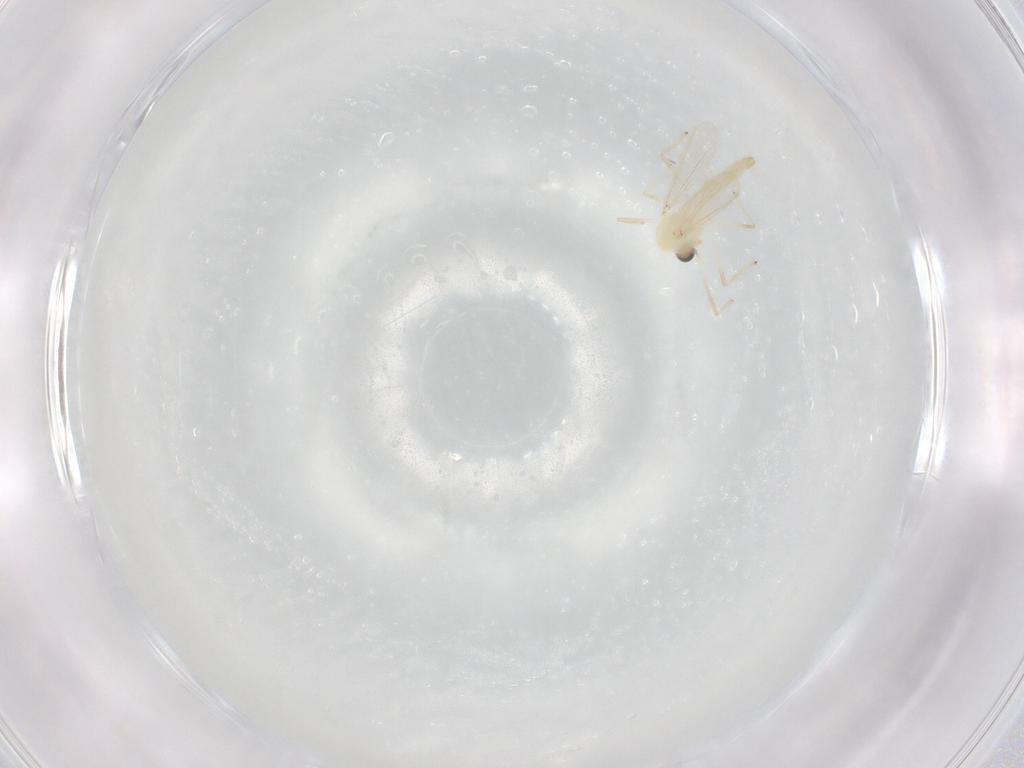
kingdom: Animalia
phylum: Arthropoda
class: Insecta
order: Diptera
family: Chironomidae
